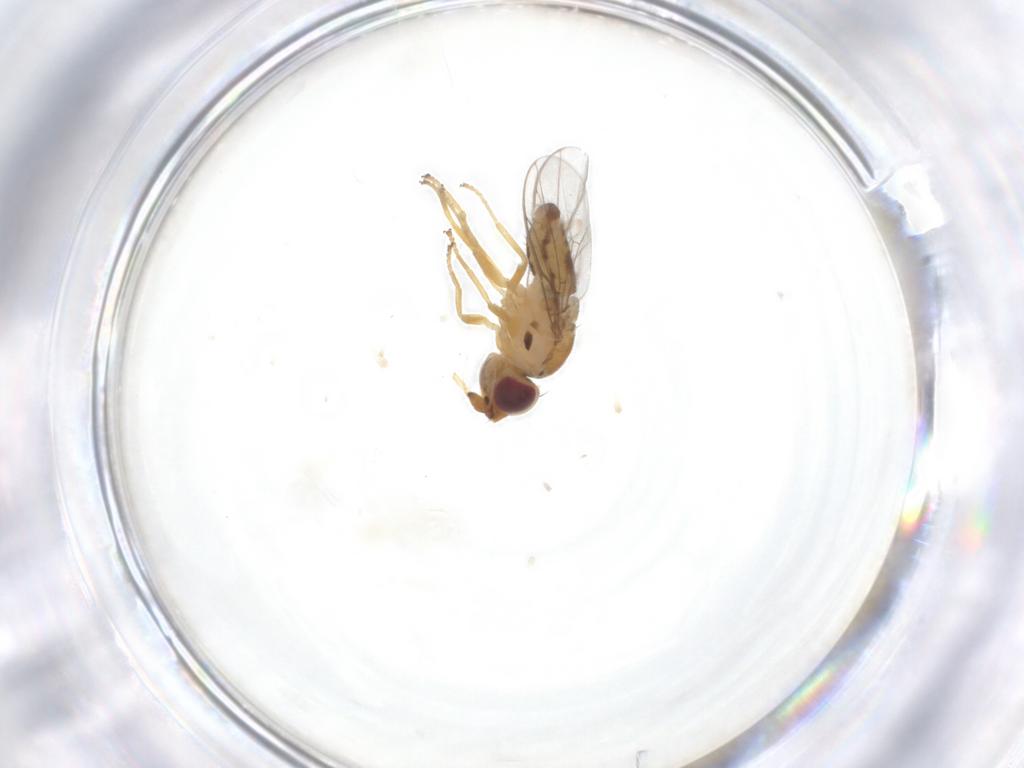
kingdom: Animalia
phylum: Arthropoda
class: Insecta
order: Diptera
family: Chloropidae
